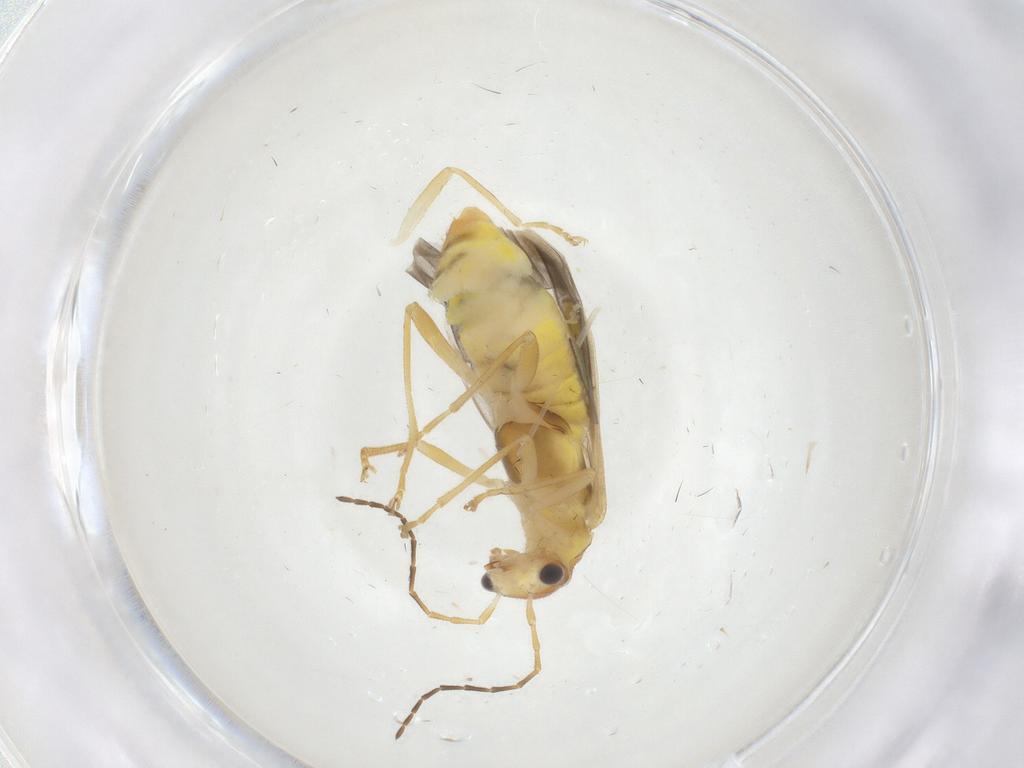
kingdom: Animalia
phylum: Arthropoda
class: Insecta
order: Coleoptera
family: Cantharidae
